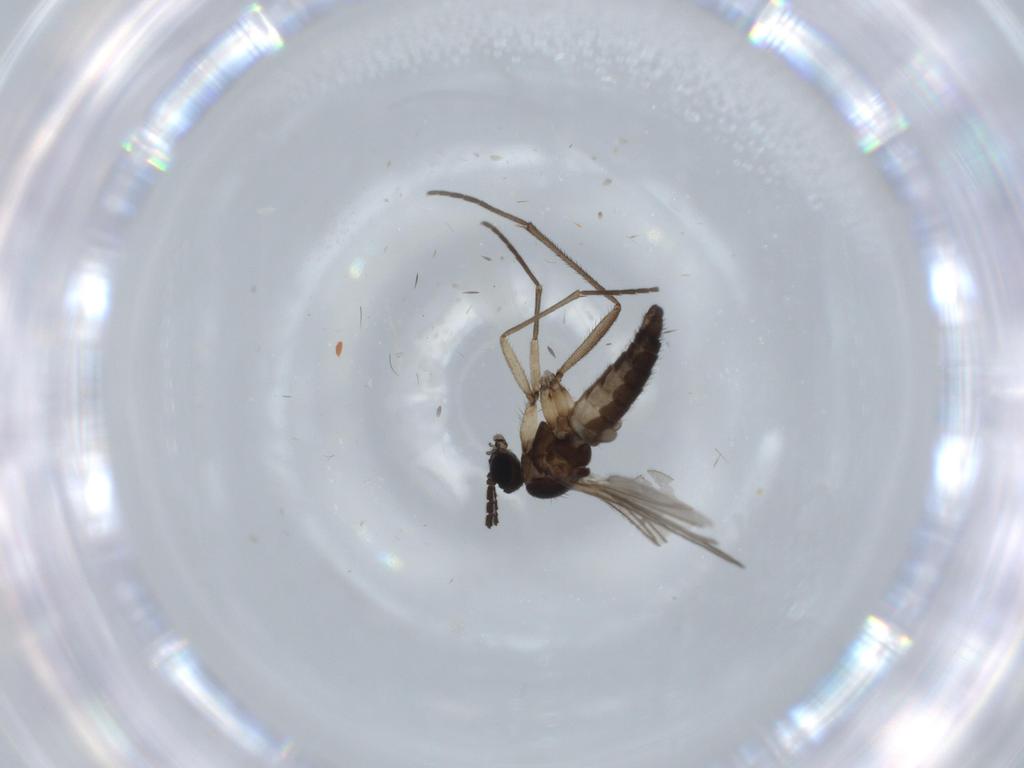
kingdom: Animalia
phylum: Arthropoda
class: Insecta
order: Diptera
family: Sciaridae
